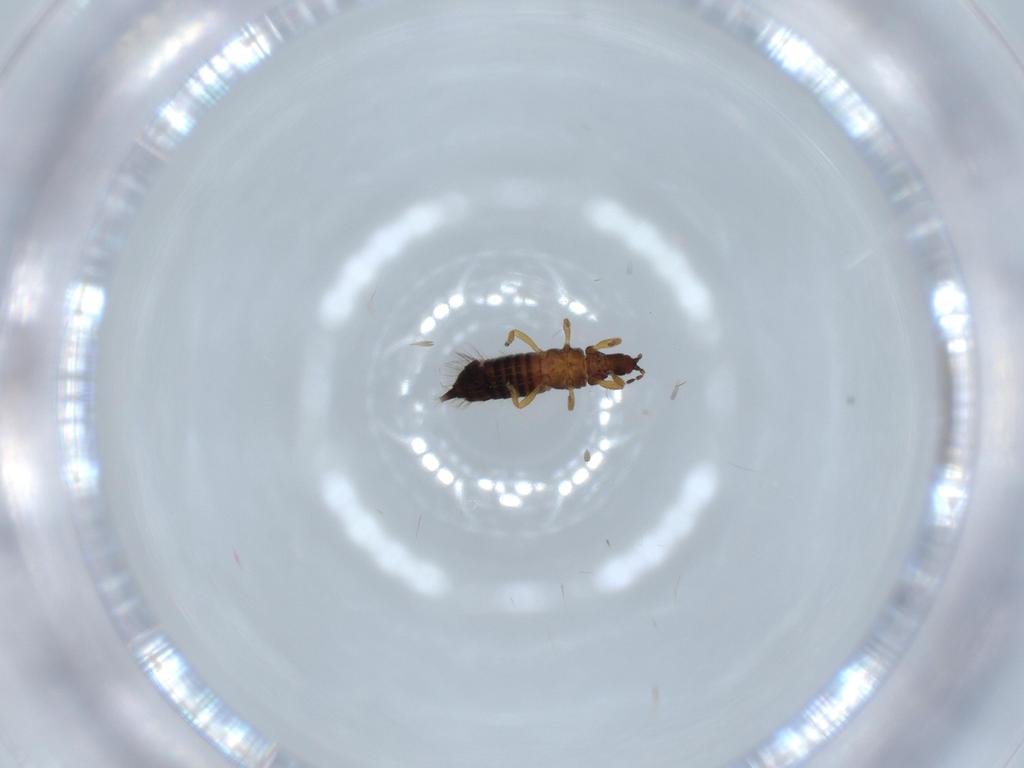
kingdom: Animalia
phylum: Arthropoda
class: Insecta
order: Thysanoptera
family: Phlaeothripidae
